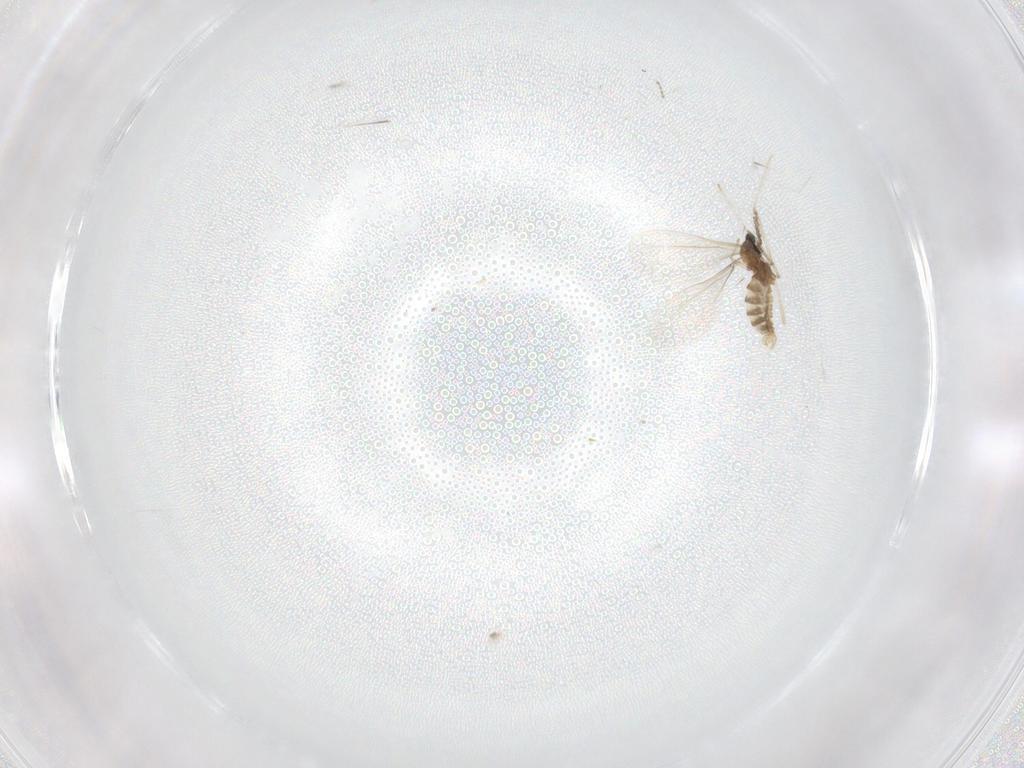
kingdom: Animalia
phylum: Arthropoda
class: Insecta
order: Diptera
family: Cecidomyiidae
